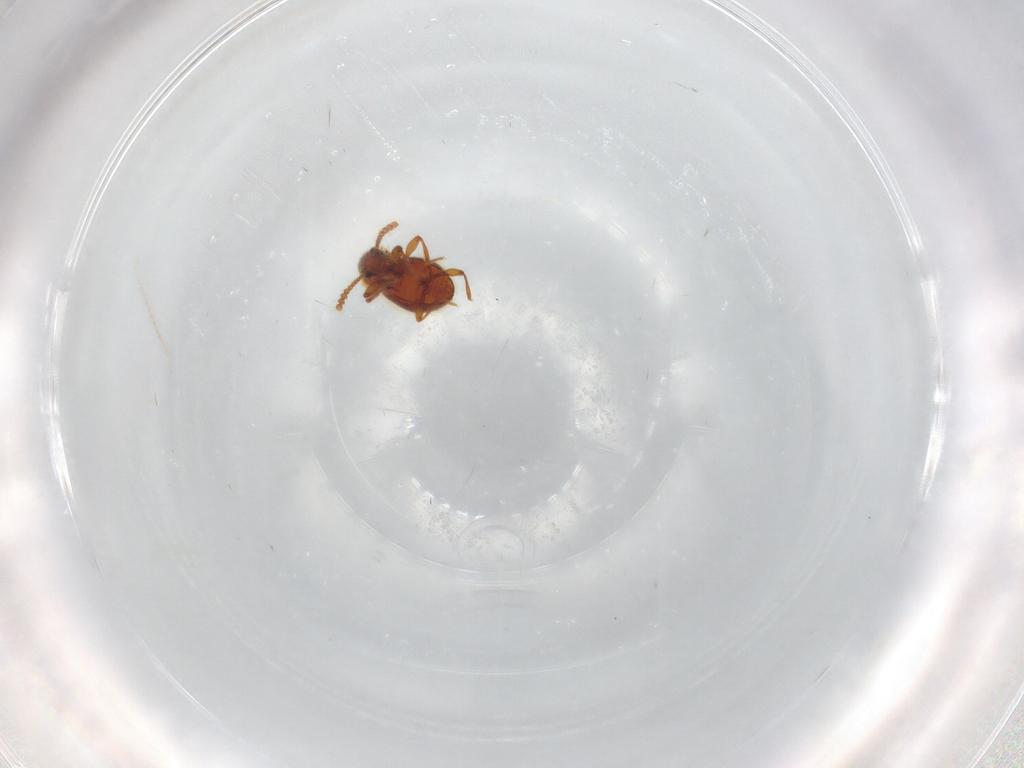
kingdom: Animalia
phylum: Arthropoda
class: Insecta
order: Coleoptera
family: Staphylinidae
